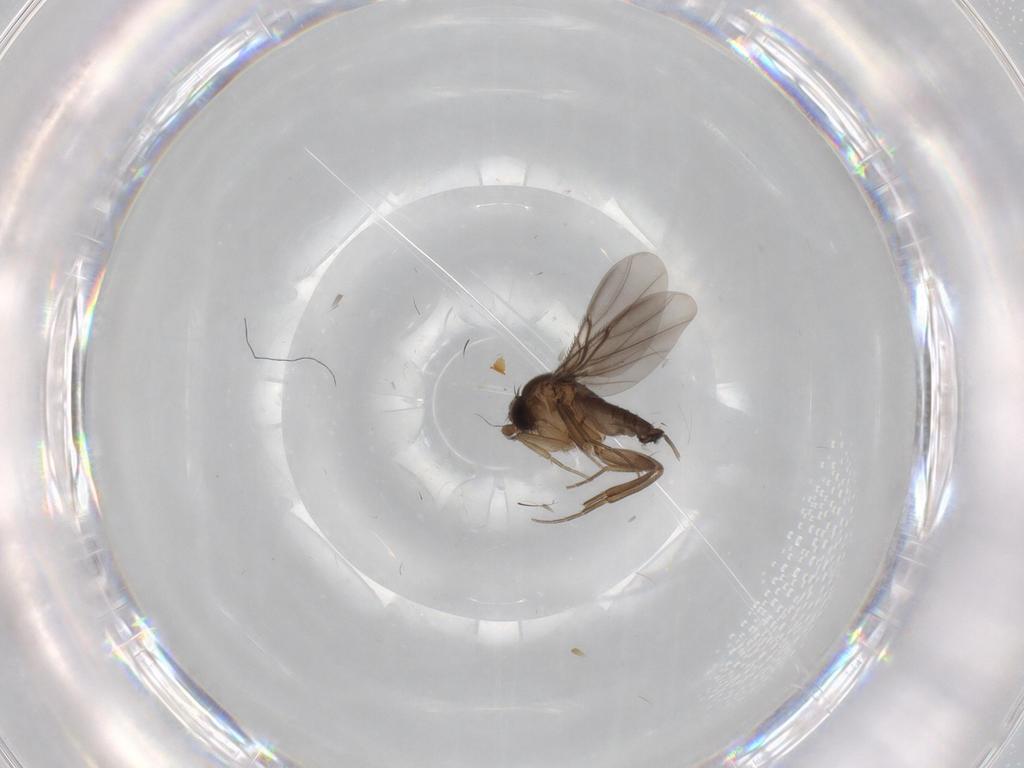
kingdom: Animalia
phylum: Arthropoda
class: Insecta
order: Diptera
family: Phoridae
